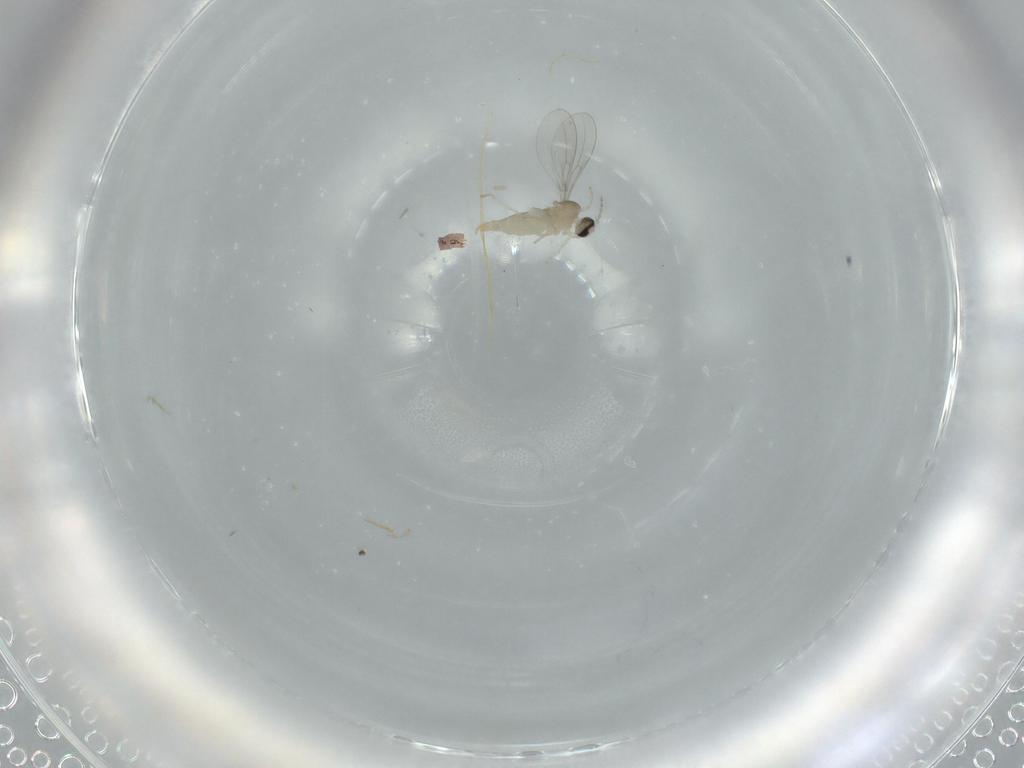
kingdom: Animalia
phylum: Arthropoda
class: Insecta
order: Diptera
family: Cecidomyiidae
